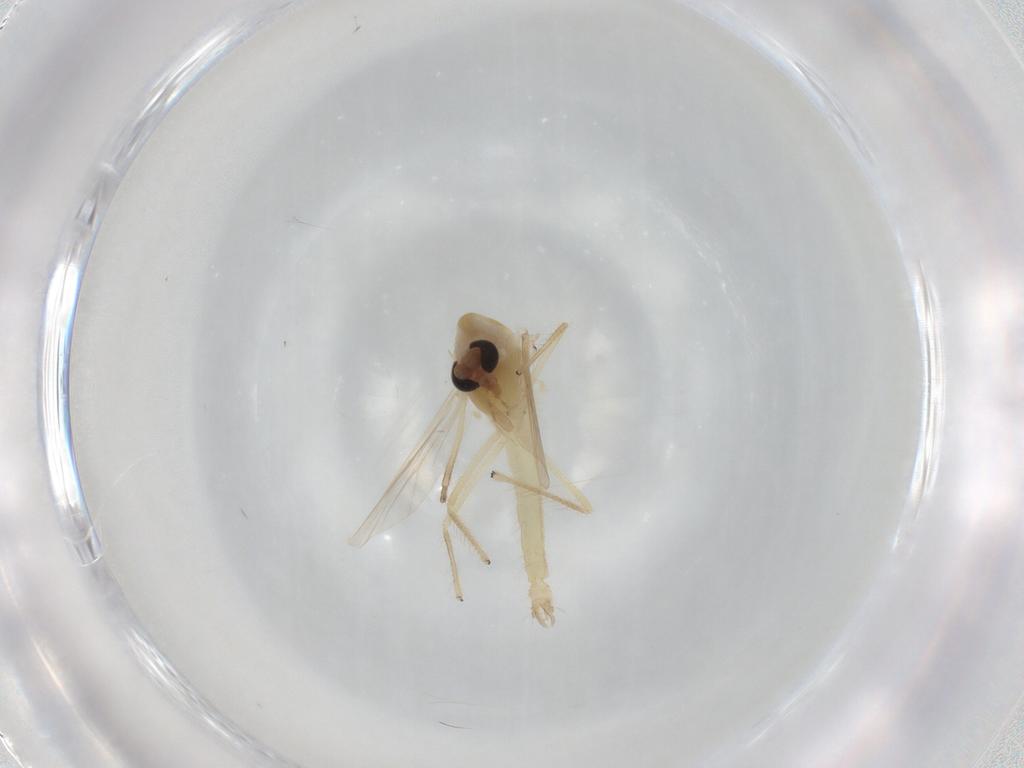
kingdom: Animalia
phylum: Arthropoda
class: Insecta
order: Diptera
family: Chironomidae
